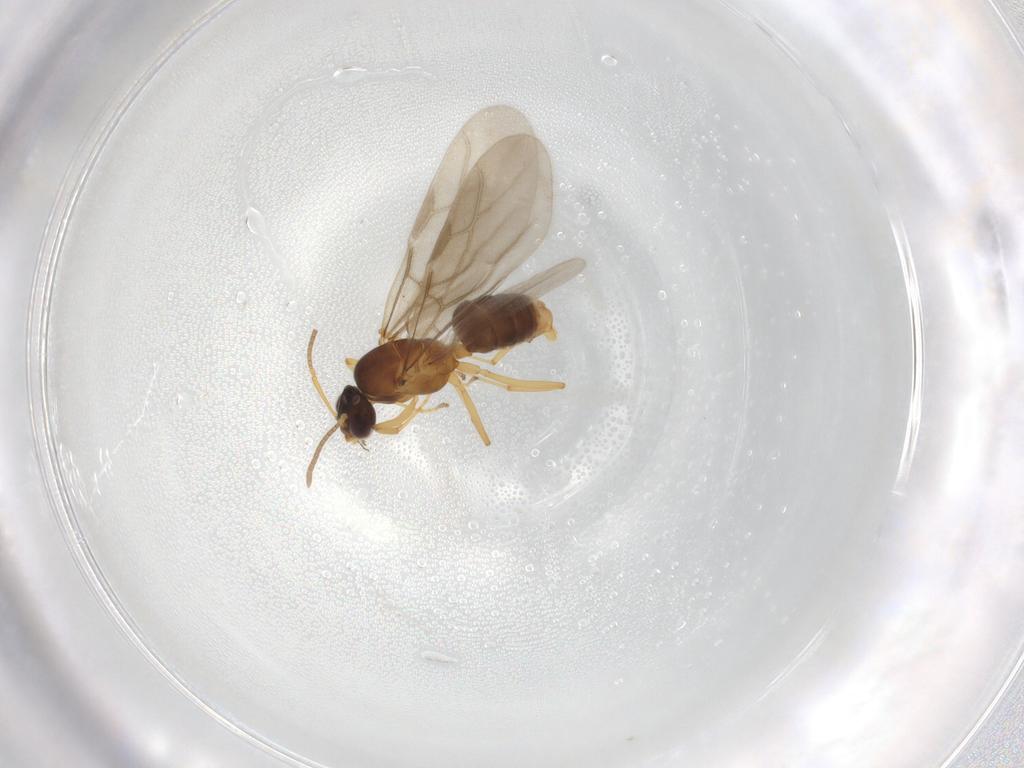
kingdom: Animalia
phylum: Arthropoda
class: Insecta
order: Hymenoptera
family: Formicidae
